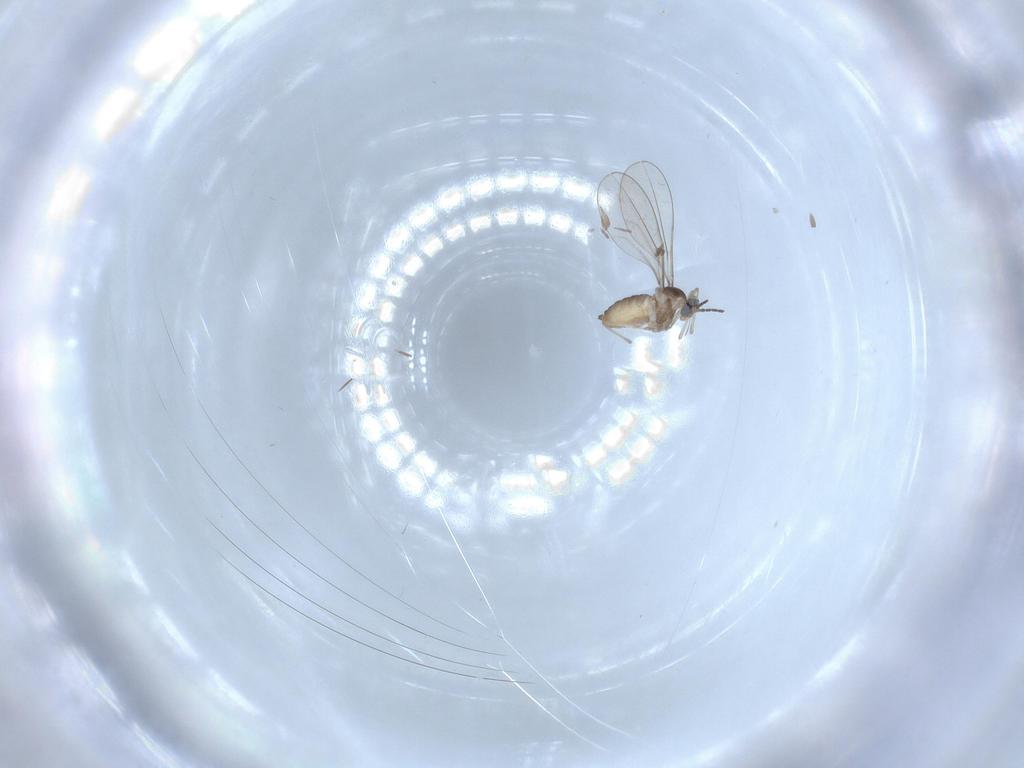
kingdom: Animalia
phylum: Arthropoda
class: Insecta
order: Diptera
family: Cecidomyiidae
